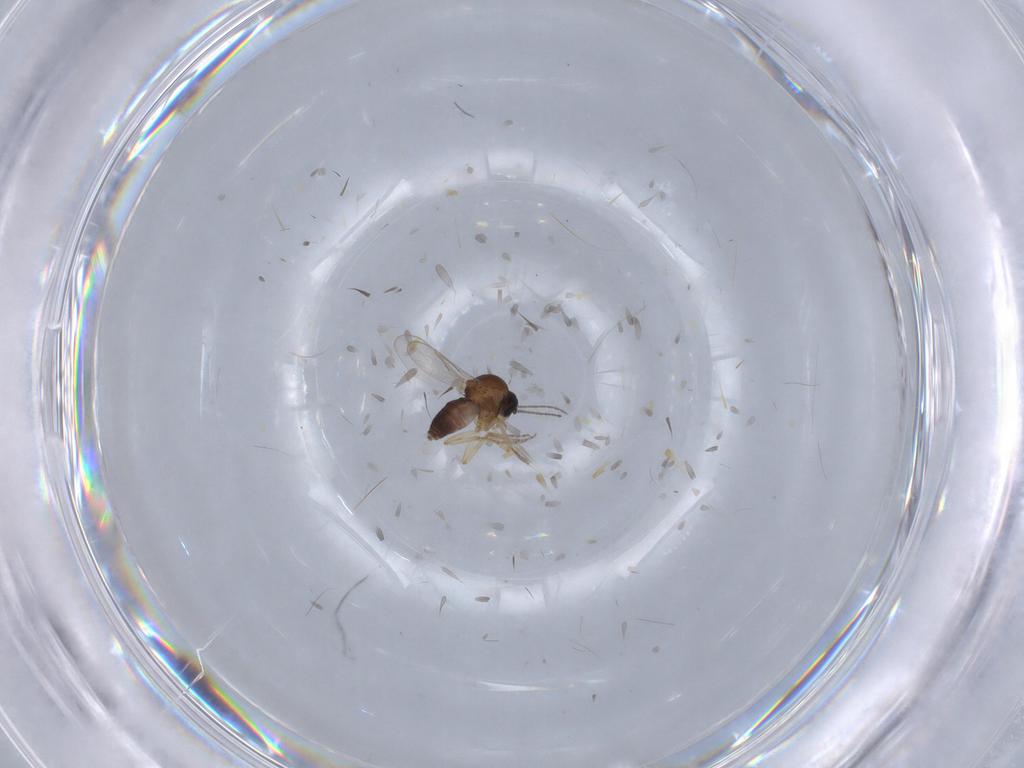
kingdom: Animalia
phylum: Arthropoda
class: Insecta
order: Diptera
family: Ceratopogonidae
